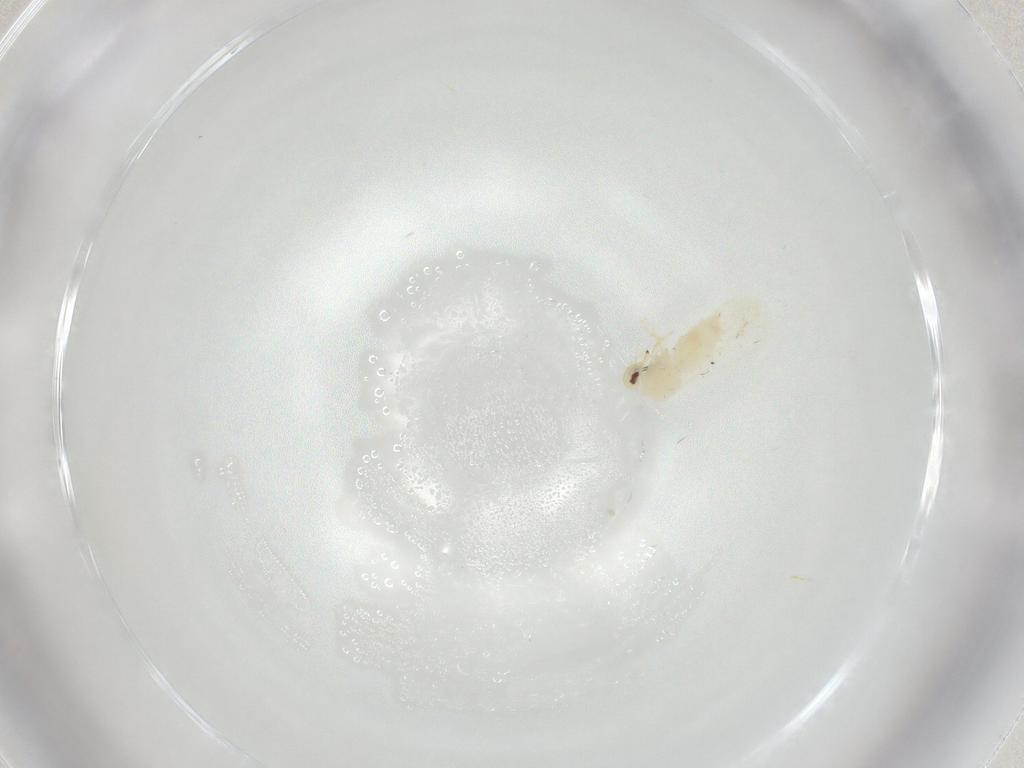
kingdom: Animalia
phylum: Arthropoda
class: Insecta
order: Hemiptera
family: Aleyrodidae
